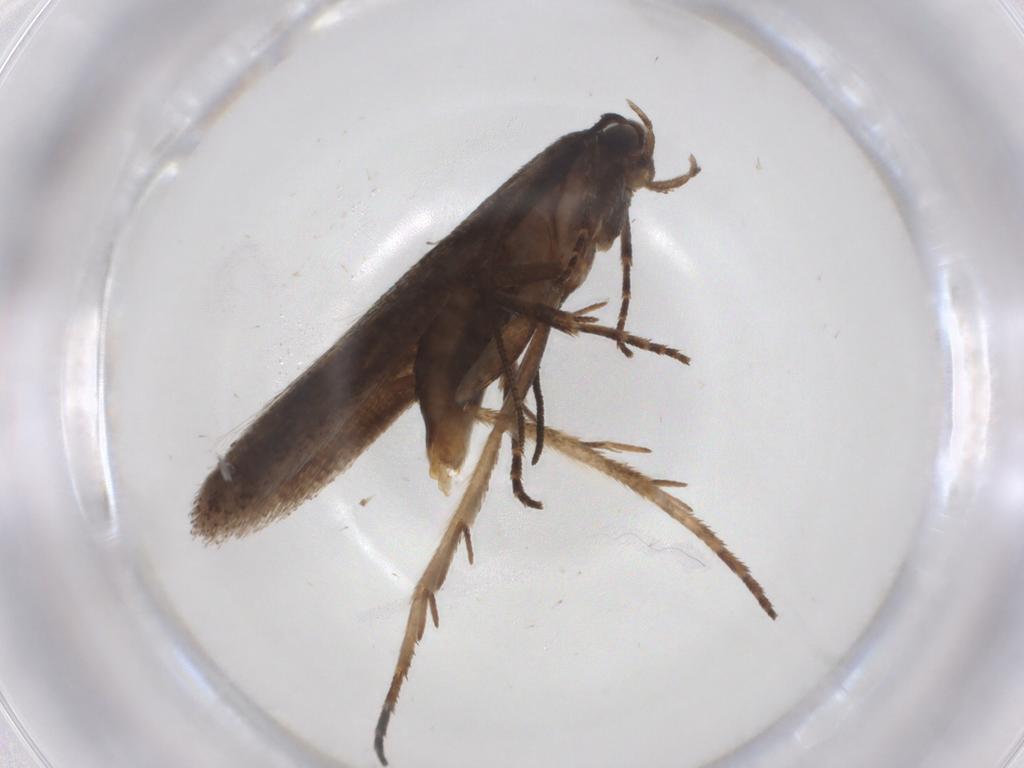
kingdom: Animalia
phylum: Arthropoda
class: Insecta
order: Lepidoptera
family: Gelechiidae
